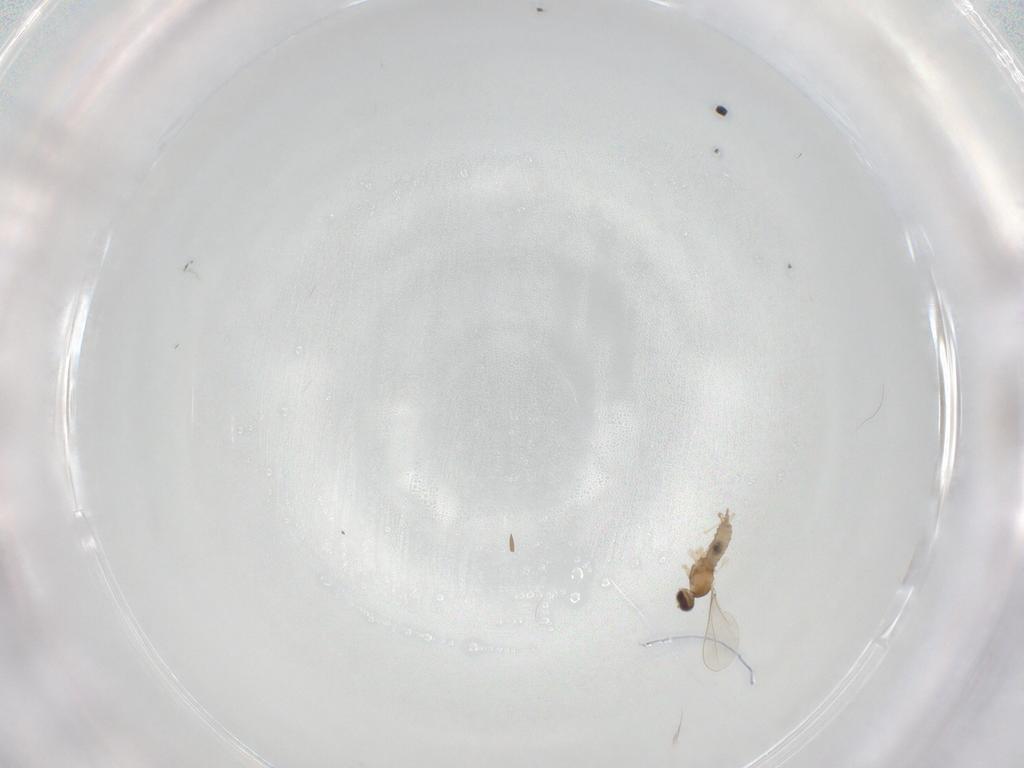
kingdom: Animalia
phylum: Arthropoda
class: Insecta
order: Diptera
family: Cecidomyiidae
